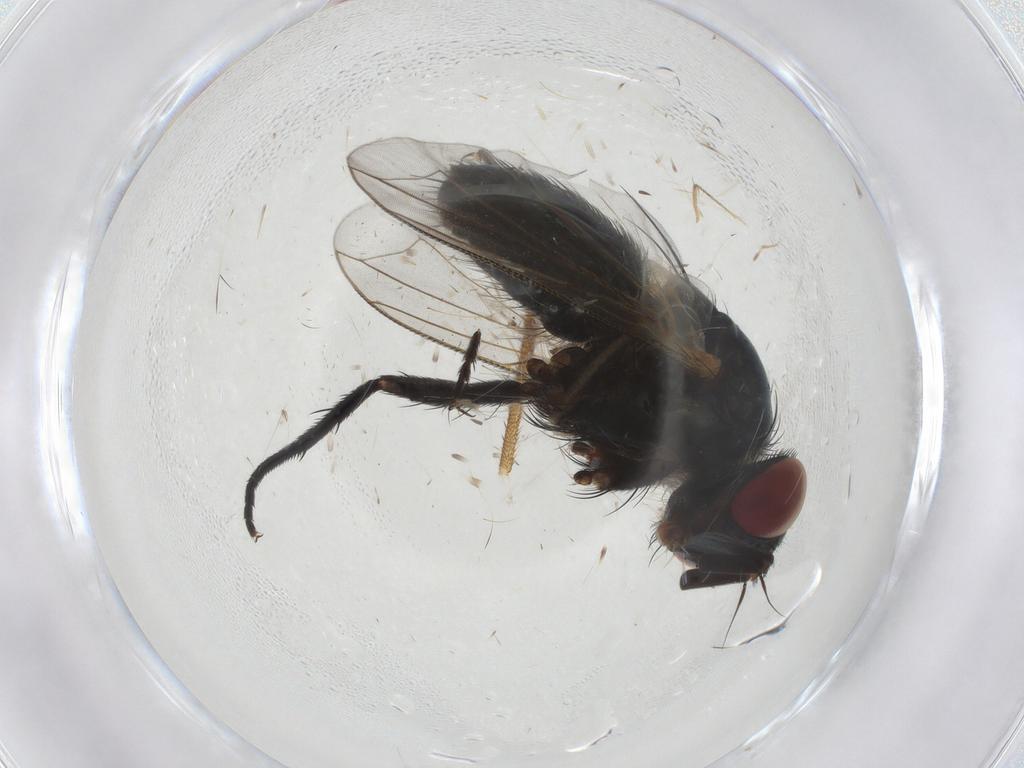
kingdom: Animalia
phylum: Arthropoda
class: Insecta
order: Diptera
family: Tachinidae
